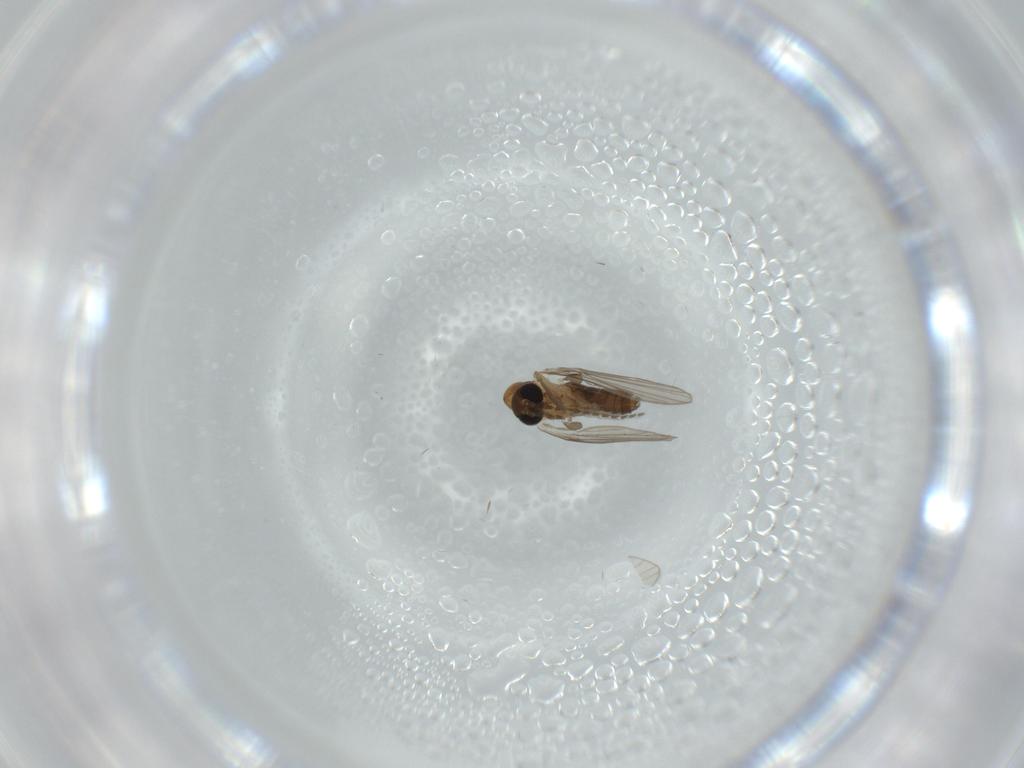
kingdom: Animalia
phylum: Arthropoda
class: Insecta
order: Diptera
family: Psychodidae
